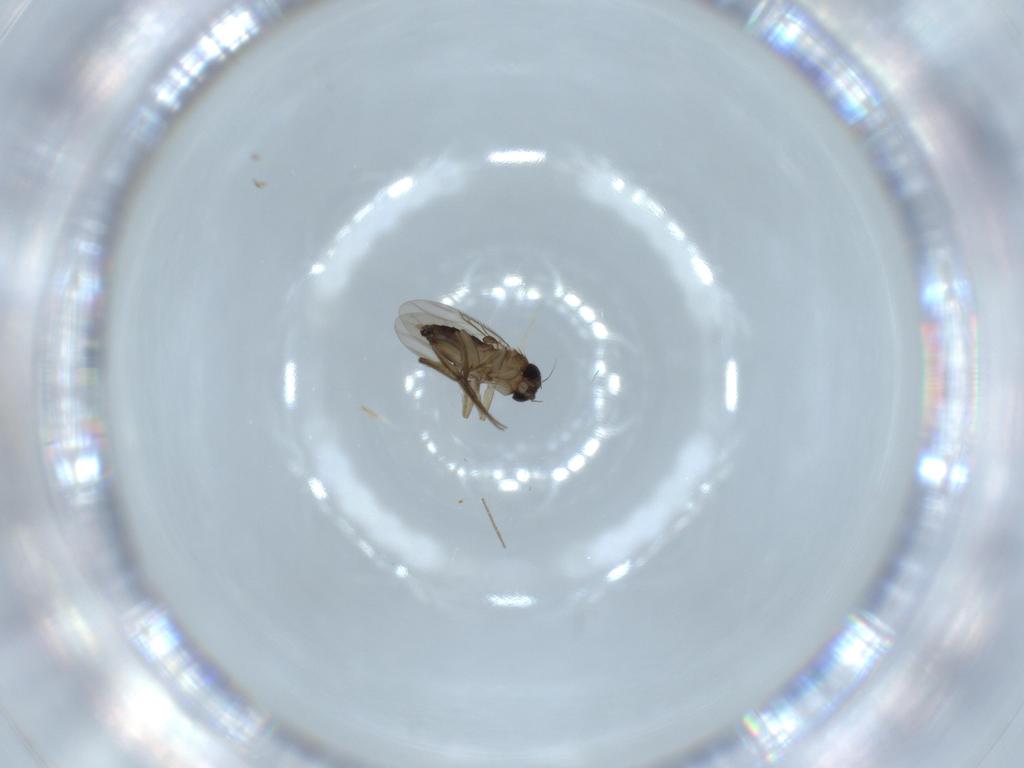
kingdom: Animalia
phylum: Arthropoda
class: Insecta
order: Diptera
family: Phoridae
